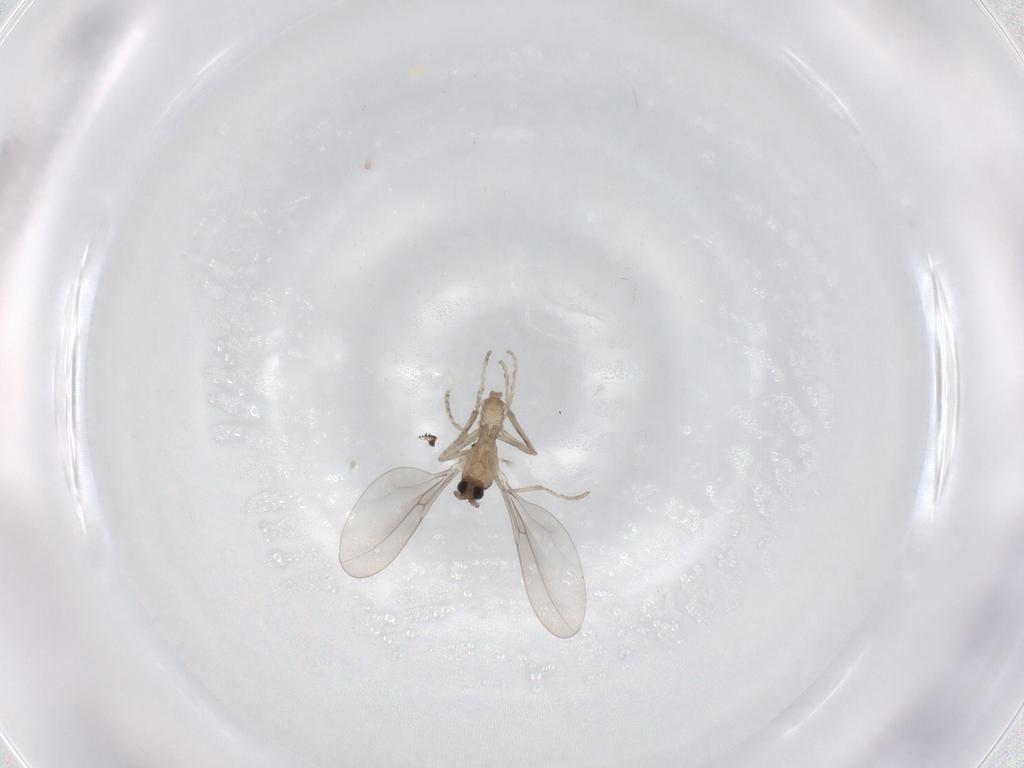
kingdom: Animalia
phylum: Arthropoda
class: Insecta
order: Diptera
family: Cecidomyiidae
